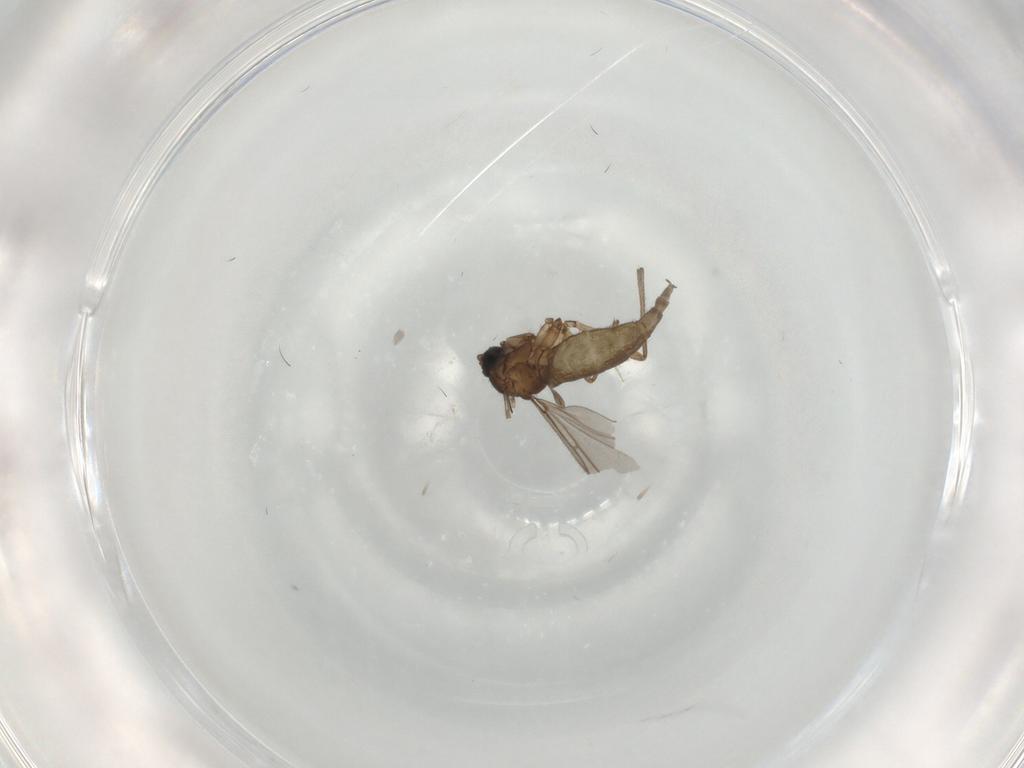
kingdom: Animalia
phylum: Arthropoda
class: Insecta
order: Diptera
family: Sciaridae
